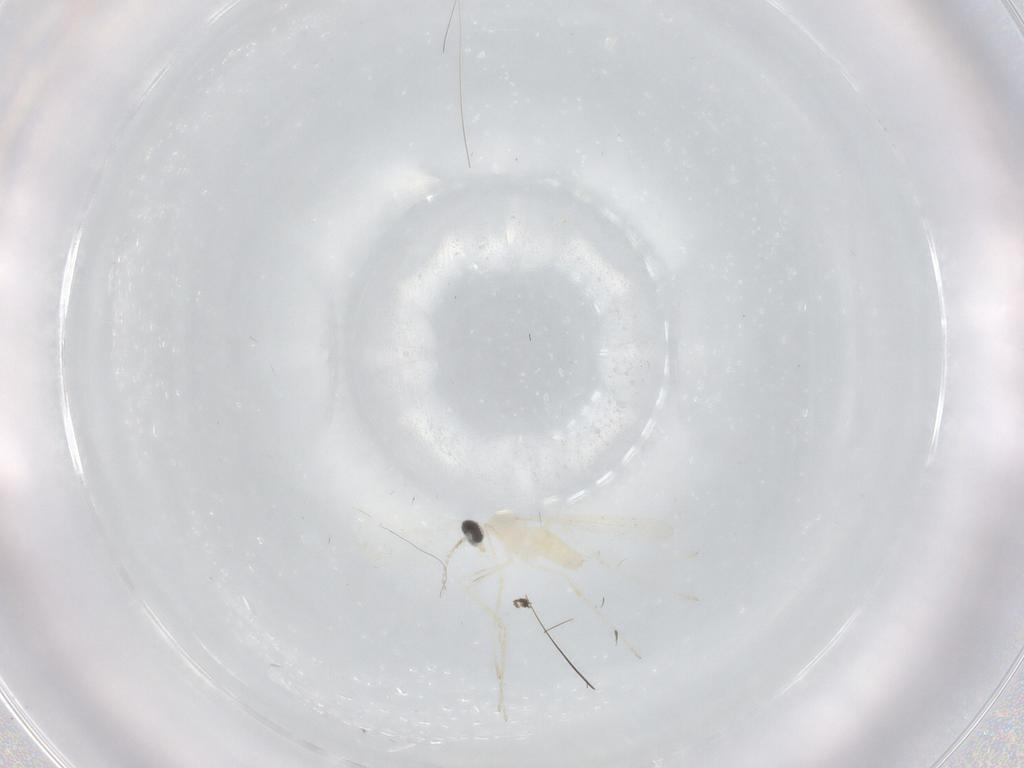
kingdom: Animalia
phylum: Arthropoda
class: Insecta
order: Diptera
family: Cecidomyiidae
